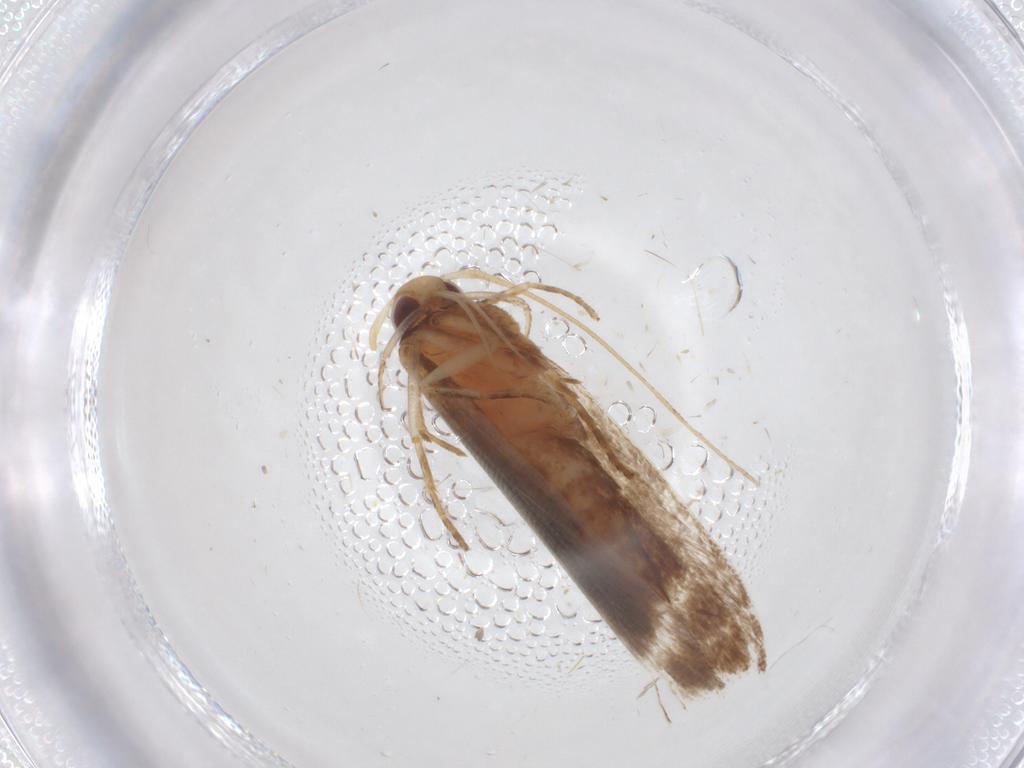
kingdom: Animalia
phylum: Arthropoda
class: Insecta
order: Lepidoptera
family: Gelechiidae
